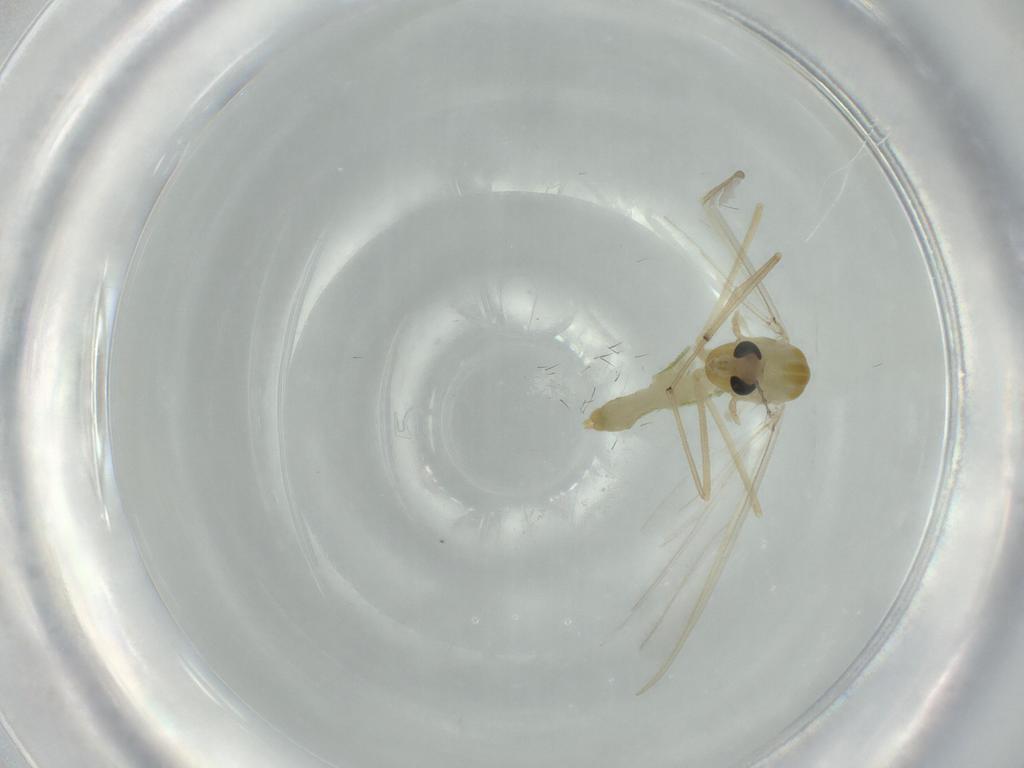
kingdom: Animalia
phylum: Arthropoda
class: Insecta
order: Diptera
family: Chironomidae
